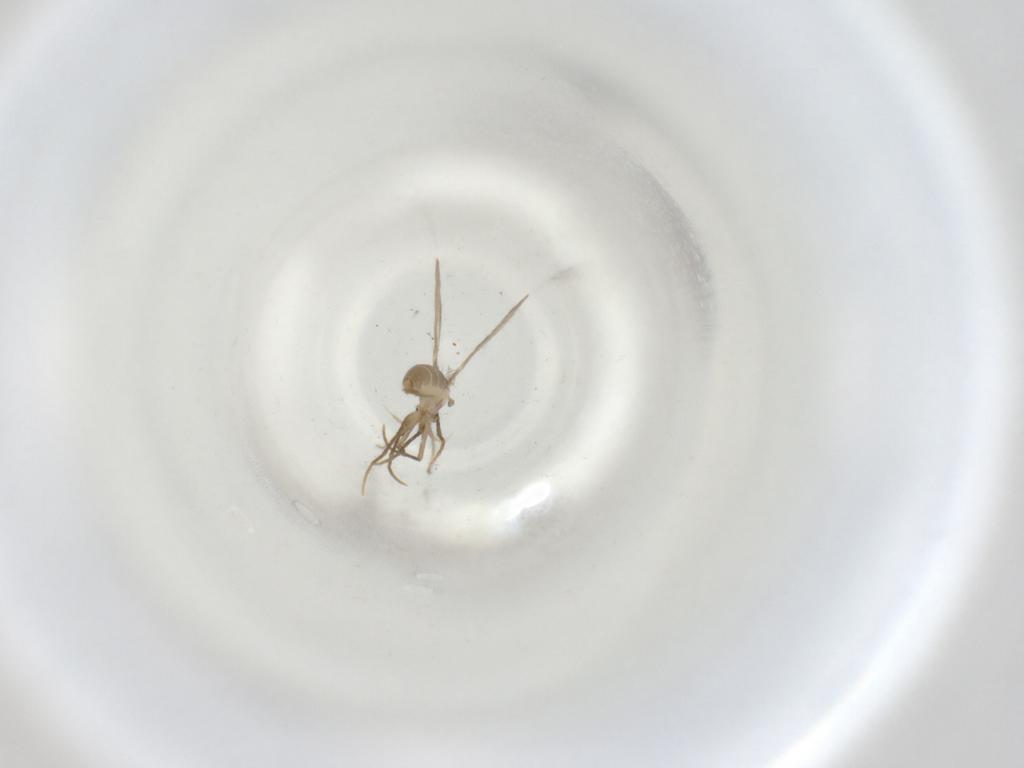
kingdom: Animalia
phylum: Arthropoda
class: Insecta
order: Diptera
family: Psychodidae
